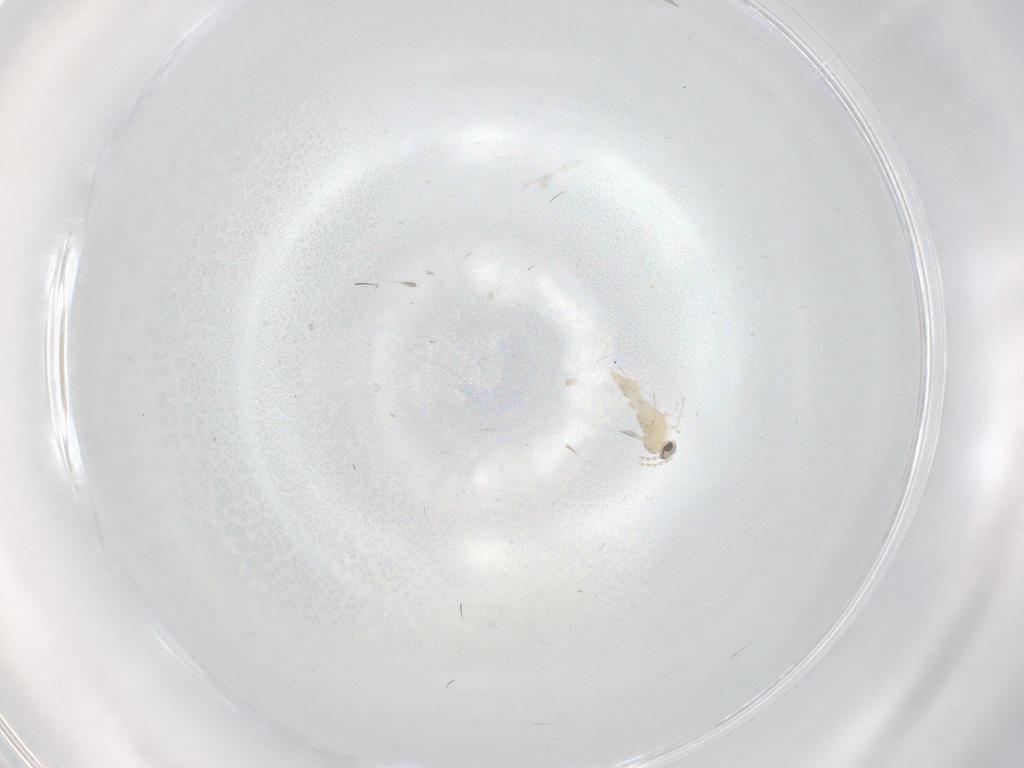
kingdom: Animalia
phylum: Arthropoda
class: Insecta
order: Diptera
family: Cecidomyiidae
